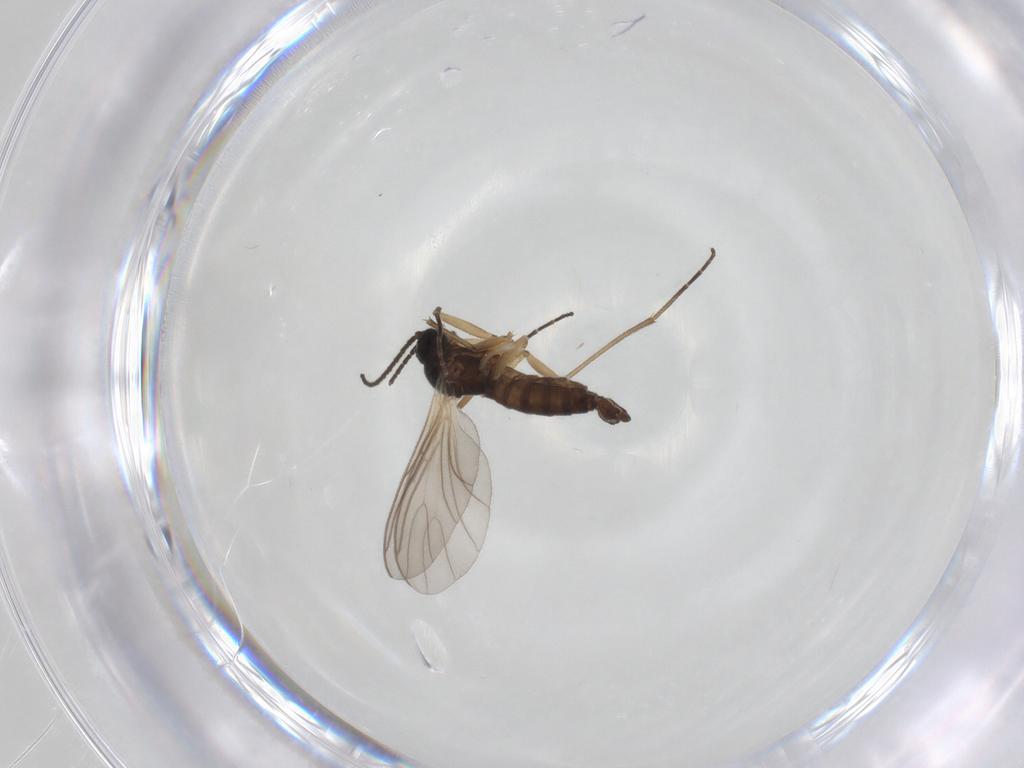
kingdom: Animalia
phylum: Arthropoda
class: Insecta
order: Diptera
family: Sciaridae
